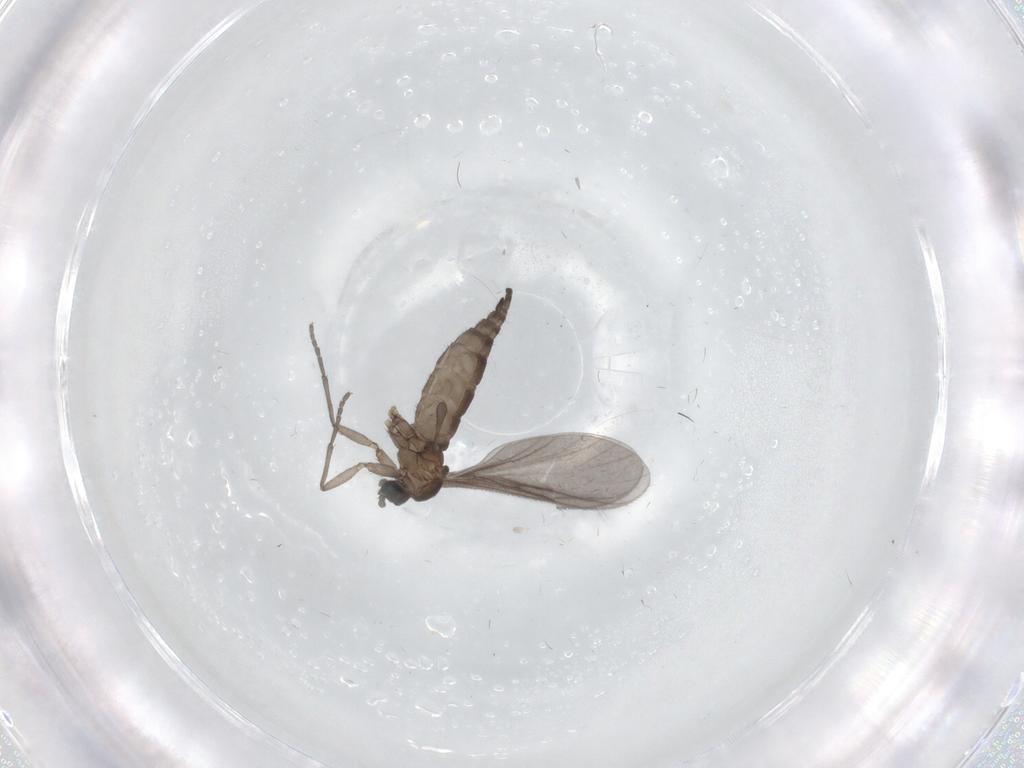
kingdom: Animalia
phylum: Arthropoda
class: Insecta
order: Diptera
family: Sciaridae
